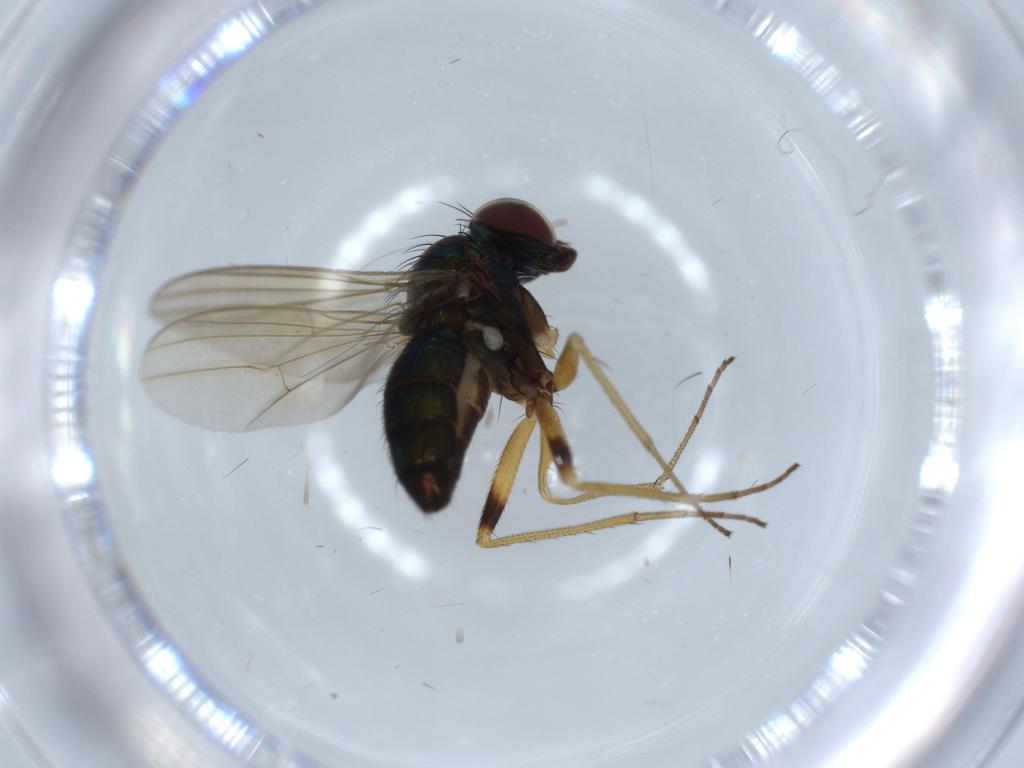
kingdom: Animalia
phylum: Arthropoda
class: Insecta
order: Diptera
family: Dolichopodidae
